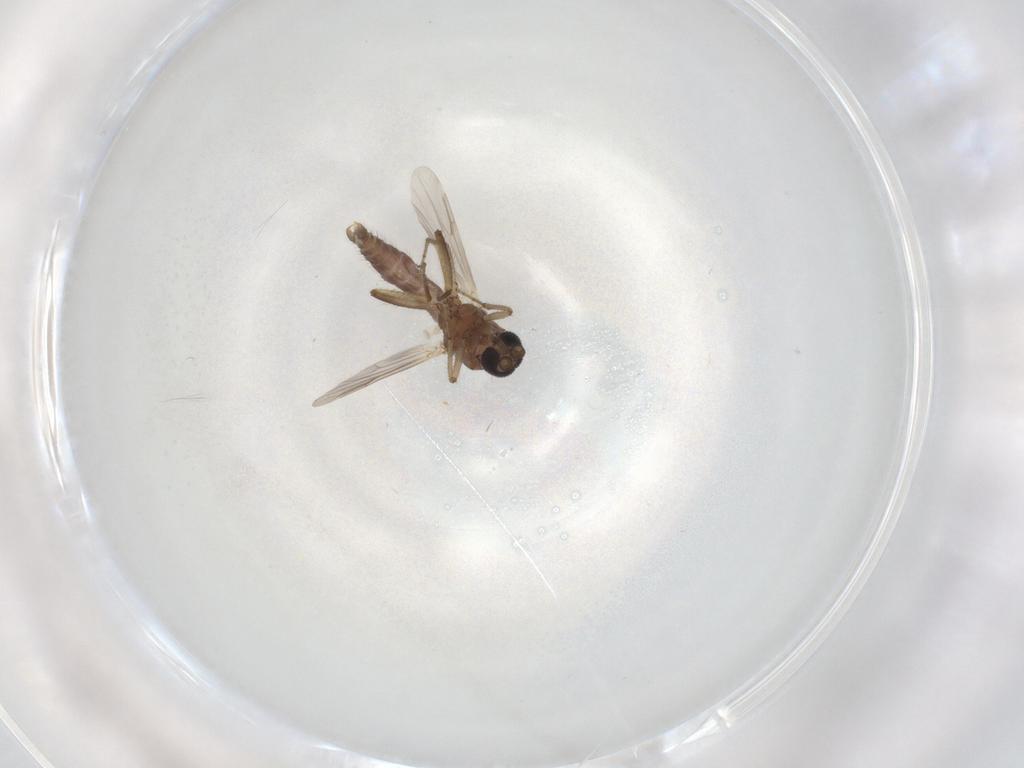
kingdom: Animalia
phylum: Arthropoda
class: Insecta
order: Diptera
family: Ceratopogonidae
